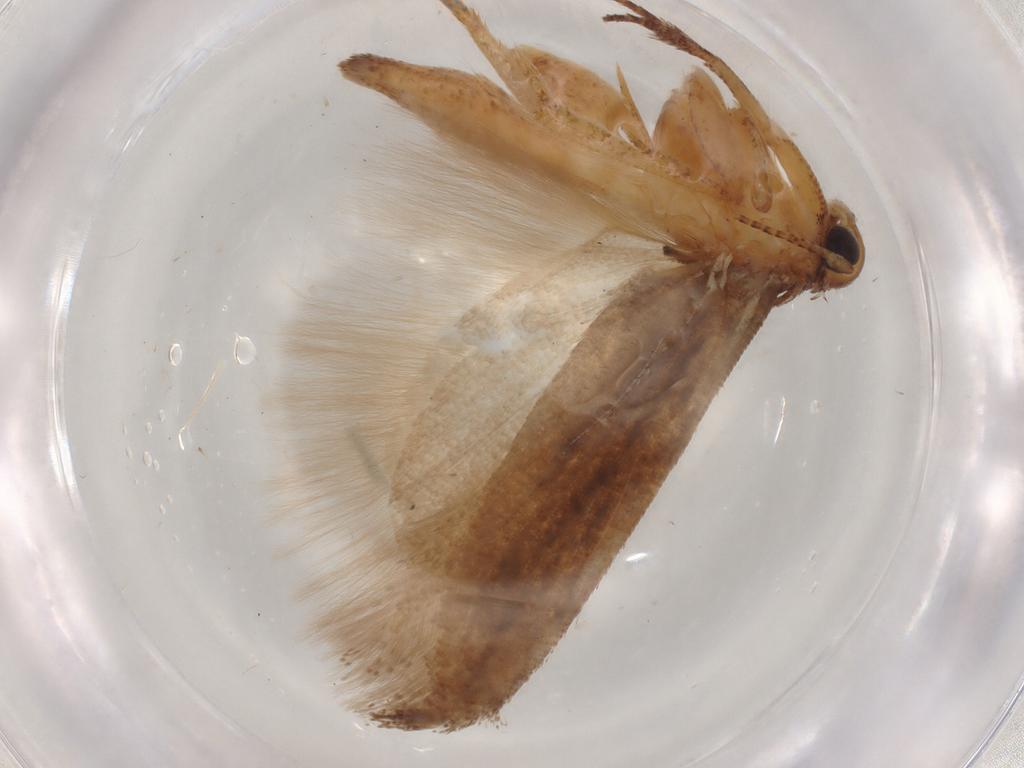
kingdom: Animalia
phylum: Arthropoda
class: Insecta
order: Lepidoptera
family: Gelechiidae
